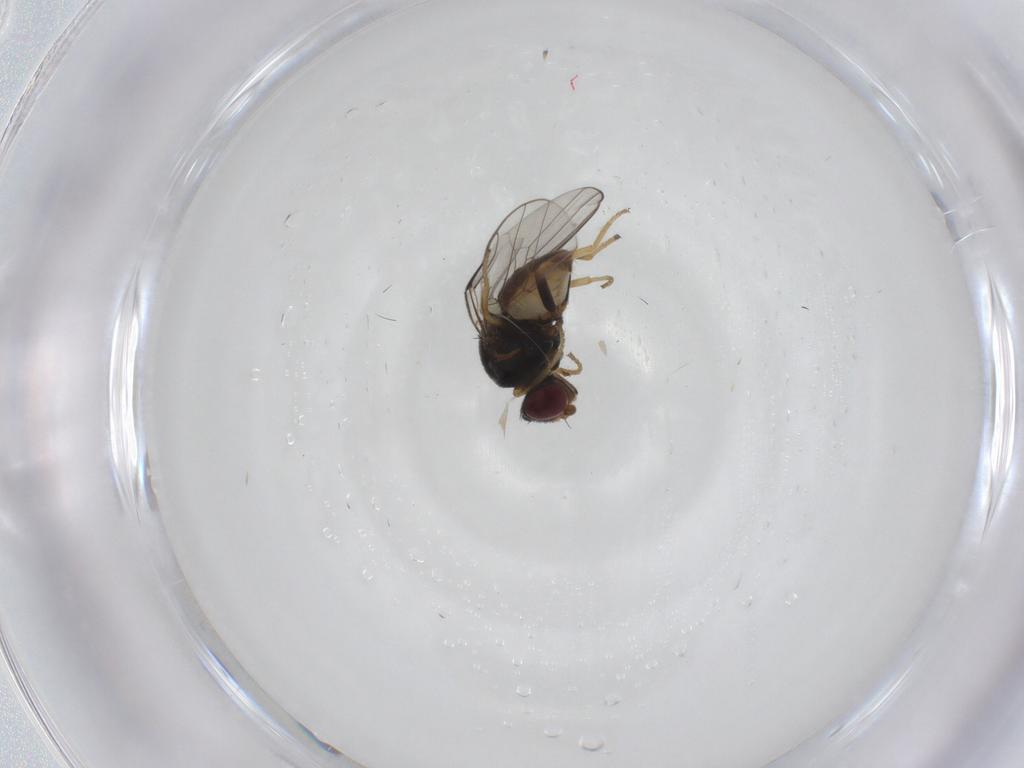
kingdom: Animalia
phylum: Arthropoda
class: Insecta
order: Diptera
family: Chloropidae
